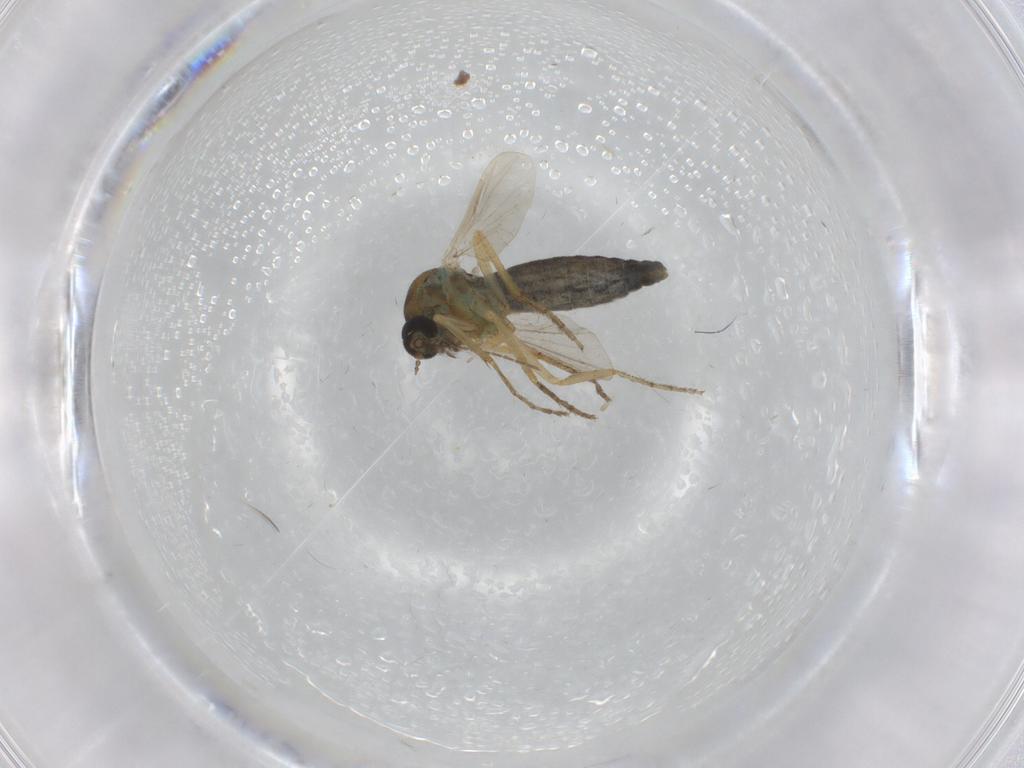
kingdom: Animalia
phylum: Arthropoda
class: Insecta
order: Diptera
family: Ceratopogonidae
